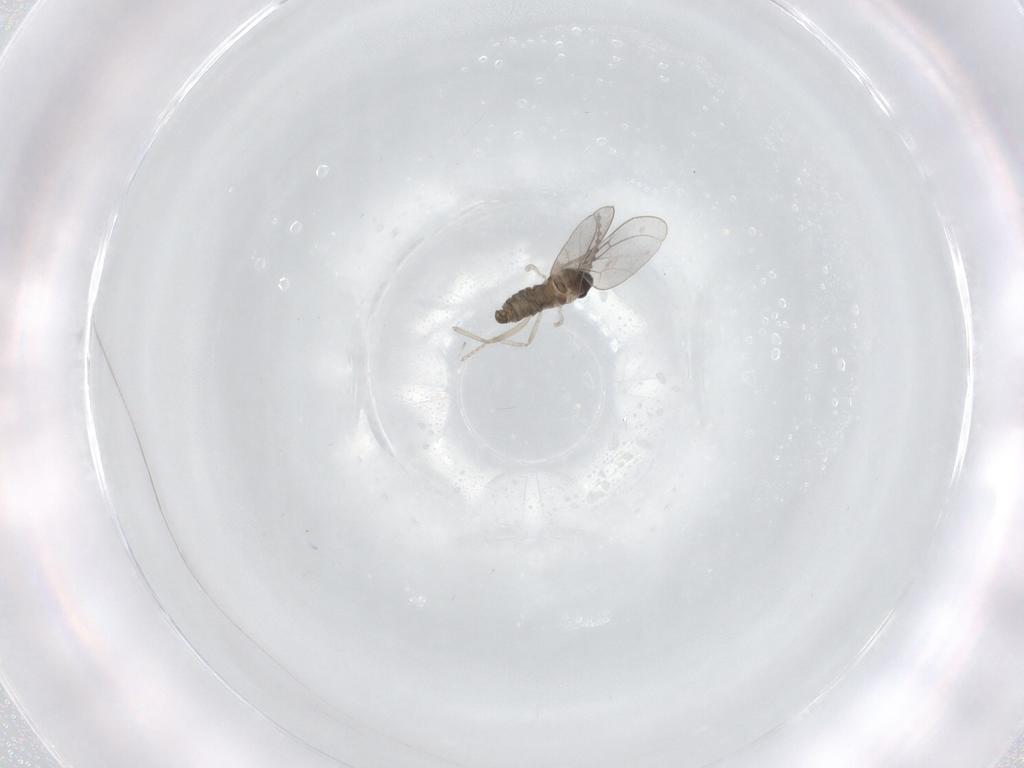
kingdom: Animalia
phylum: Arthropoda
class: Insecta
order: Diptera
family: Cecidomyiidae
